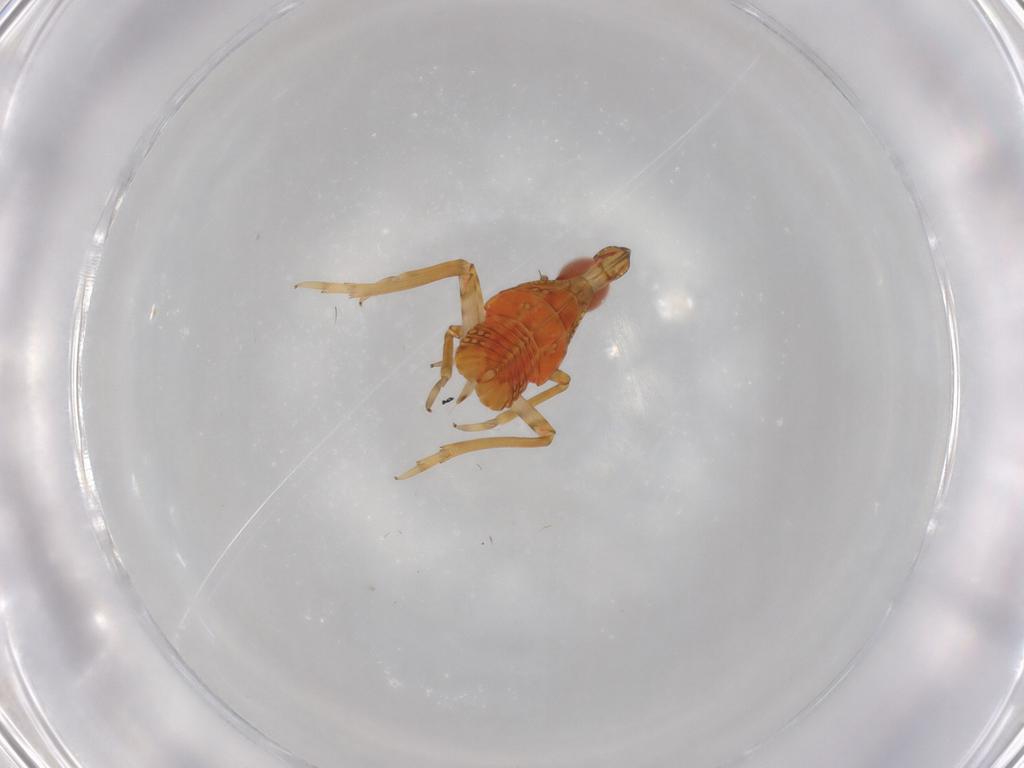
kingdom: Animalia
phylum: Arthropoda
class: Insecta
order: Hemiptera
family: Fulgoroidea_incertae_sedis
